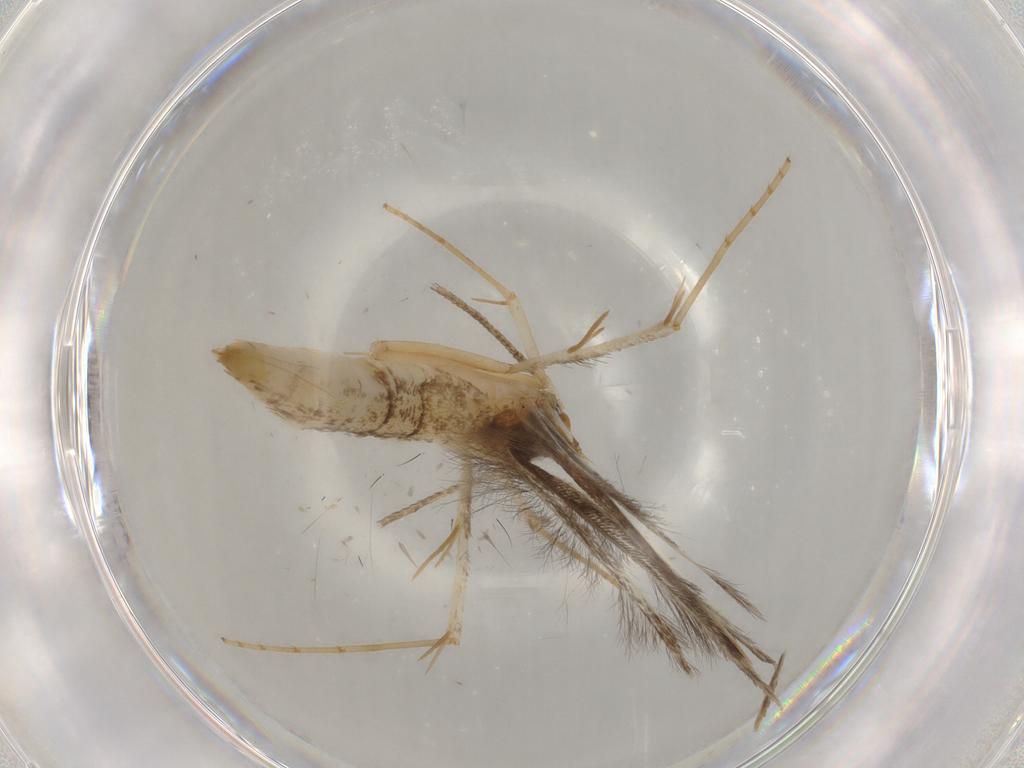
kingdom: Animalia
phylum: Arthropoda
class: Insecta
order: Lepidoptera
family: Pterolonchidae
